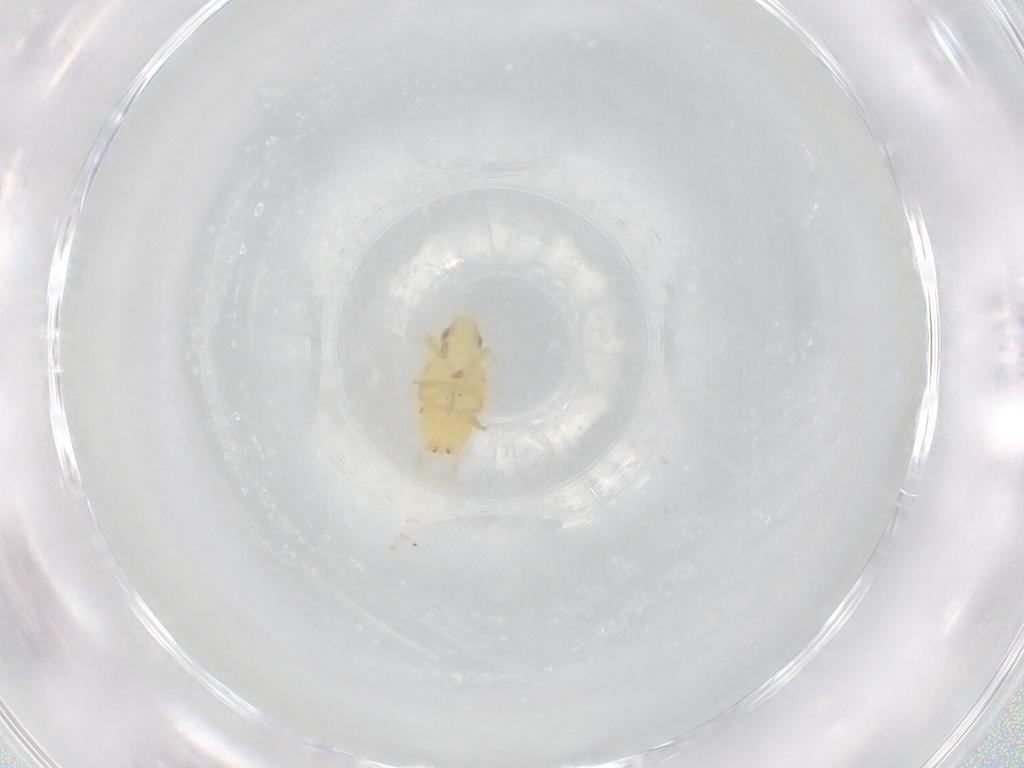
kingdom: Animalia
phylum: Arthropoda
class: Insecta
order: Hemiptera
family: Tropiduchidae
